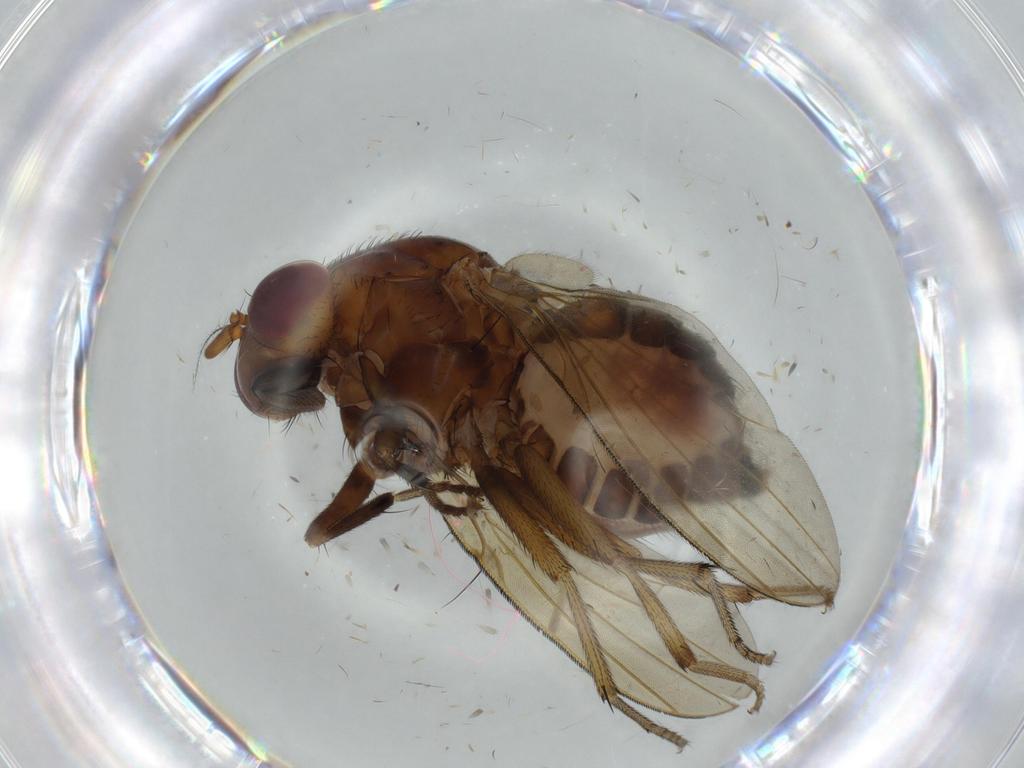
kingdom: Animalia
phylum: Arthropoda
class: Insecta
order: Diptera
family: Sciaridae
